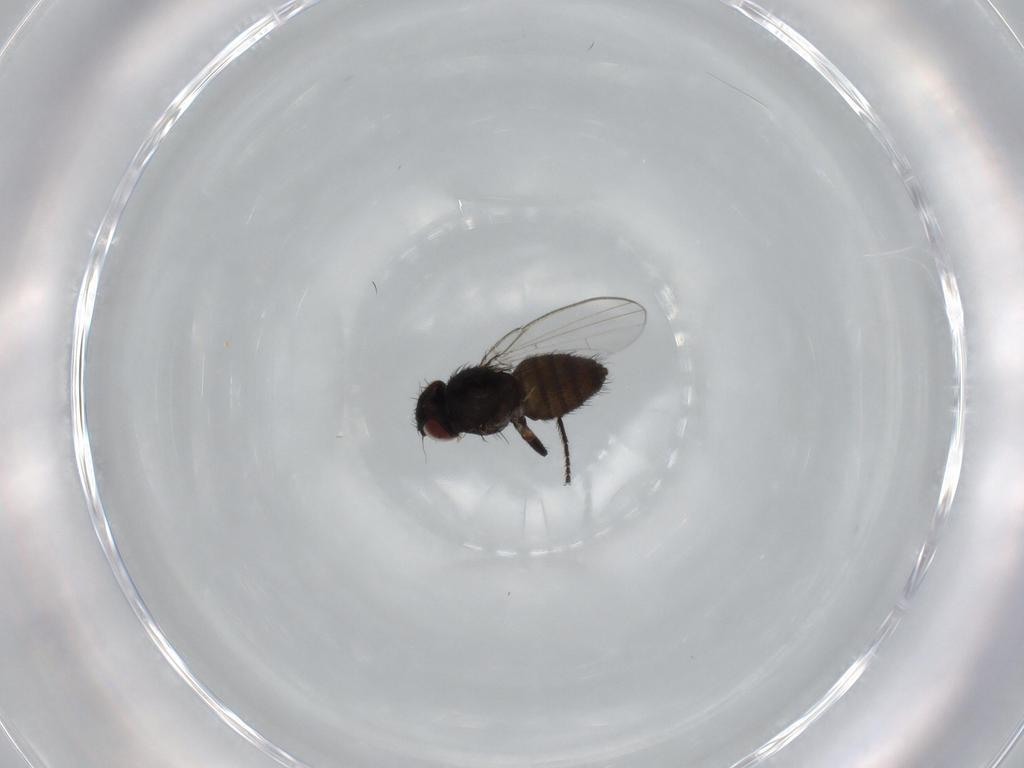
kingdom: Animalia
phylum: Arthropoda
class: Insecta
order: Diptera
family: Milichiidae
